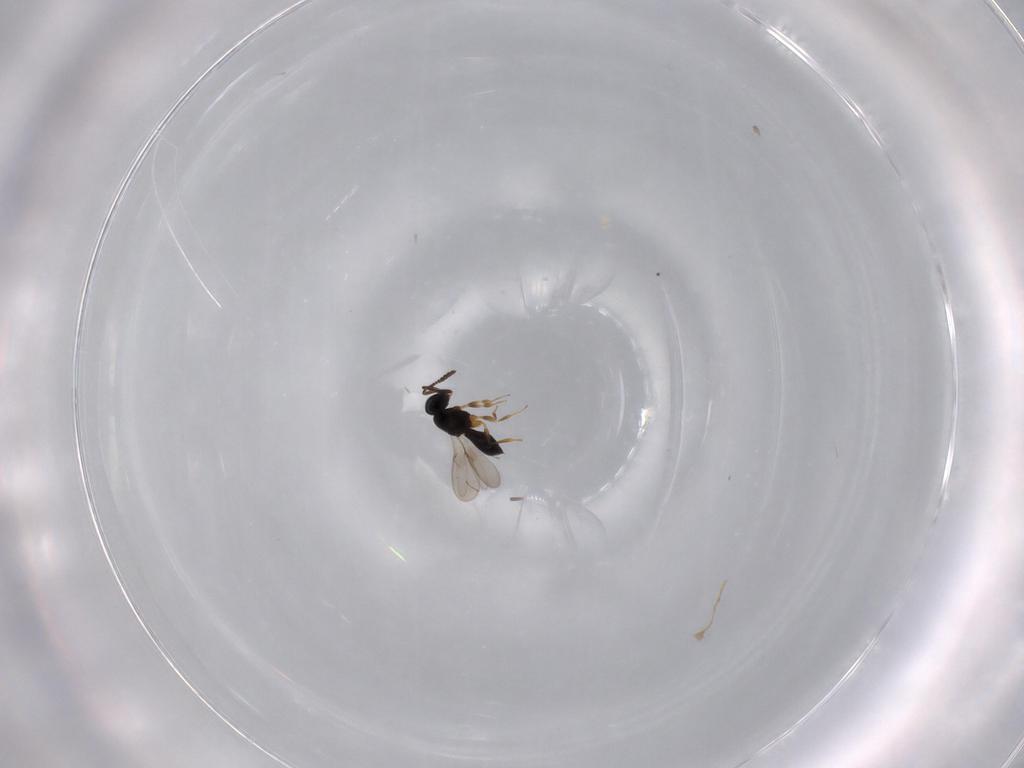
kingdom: Animalia
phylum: Arthropoda
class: Insecta
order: Hymenoptera
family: Scelionidae
